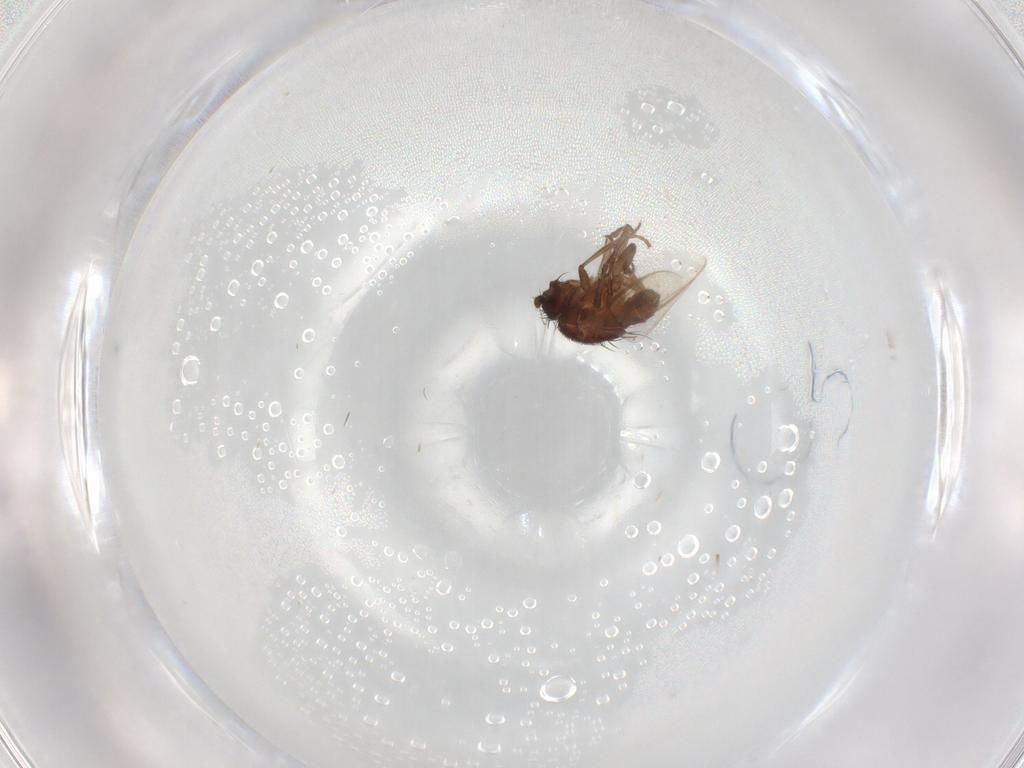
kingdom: Animalia
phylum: Arthropoda
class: Insecta
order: Diptera
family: Sphaeroceridae
